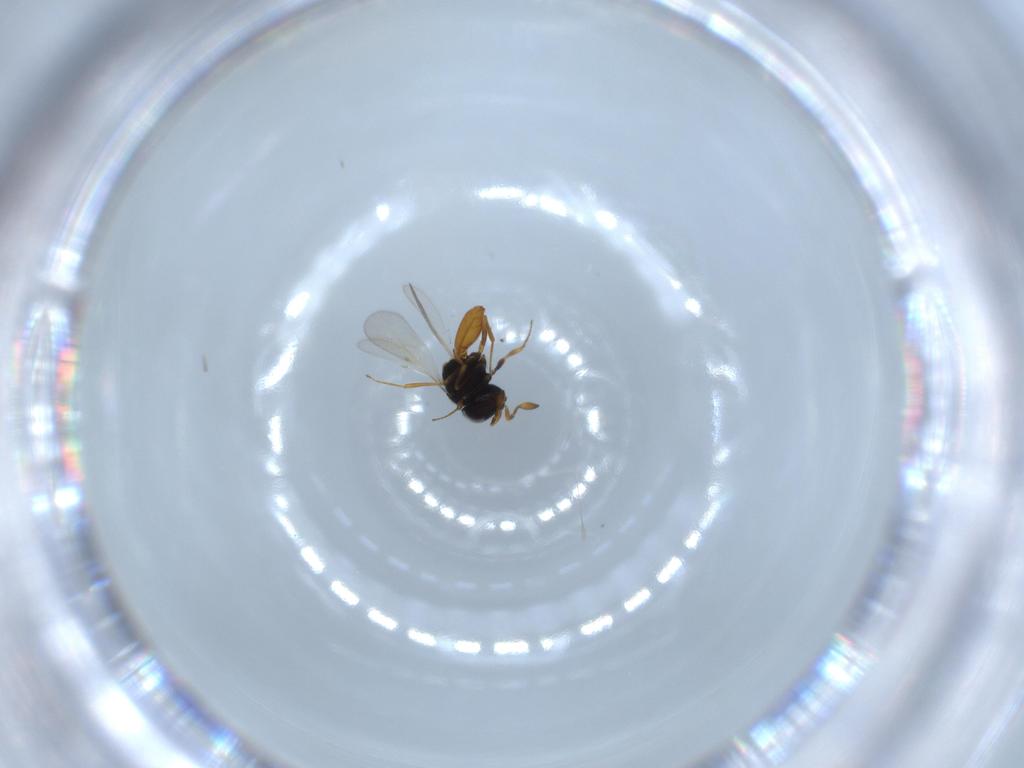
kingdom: Animalia
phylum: Arthropoda
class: Insecta
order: Hymenoptera
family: Scelionidae
